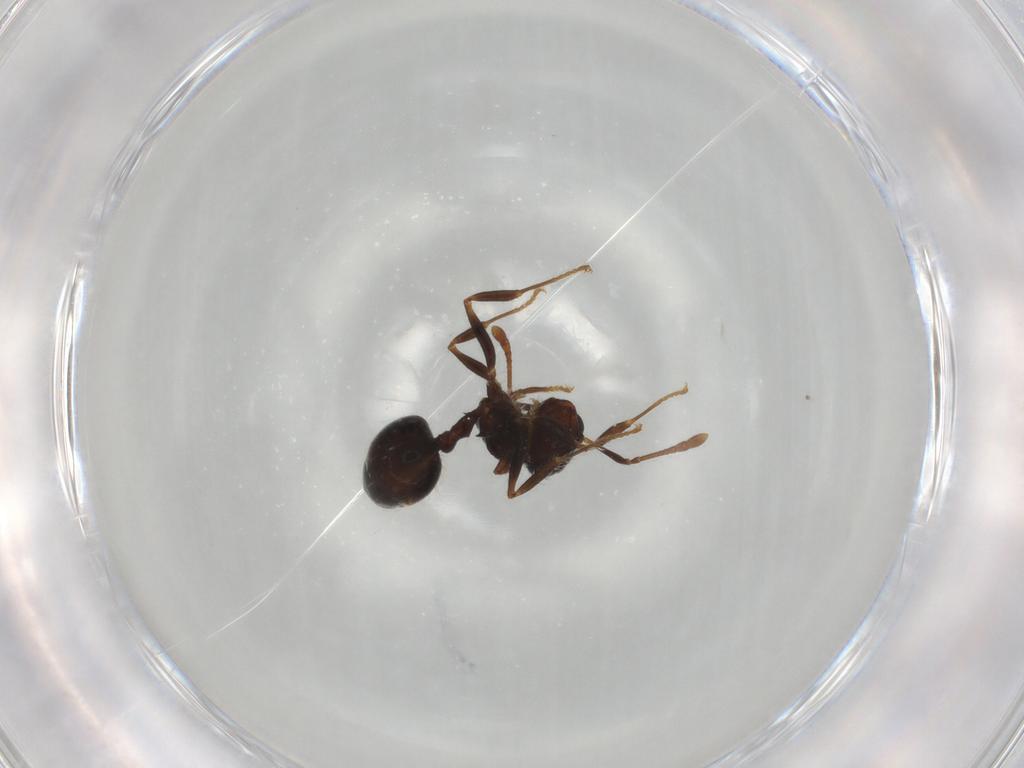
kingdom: Animalia
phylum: Arthropoda
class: Insecta
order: Hymenoptera
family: Formicidae
